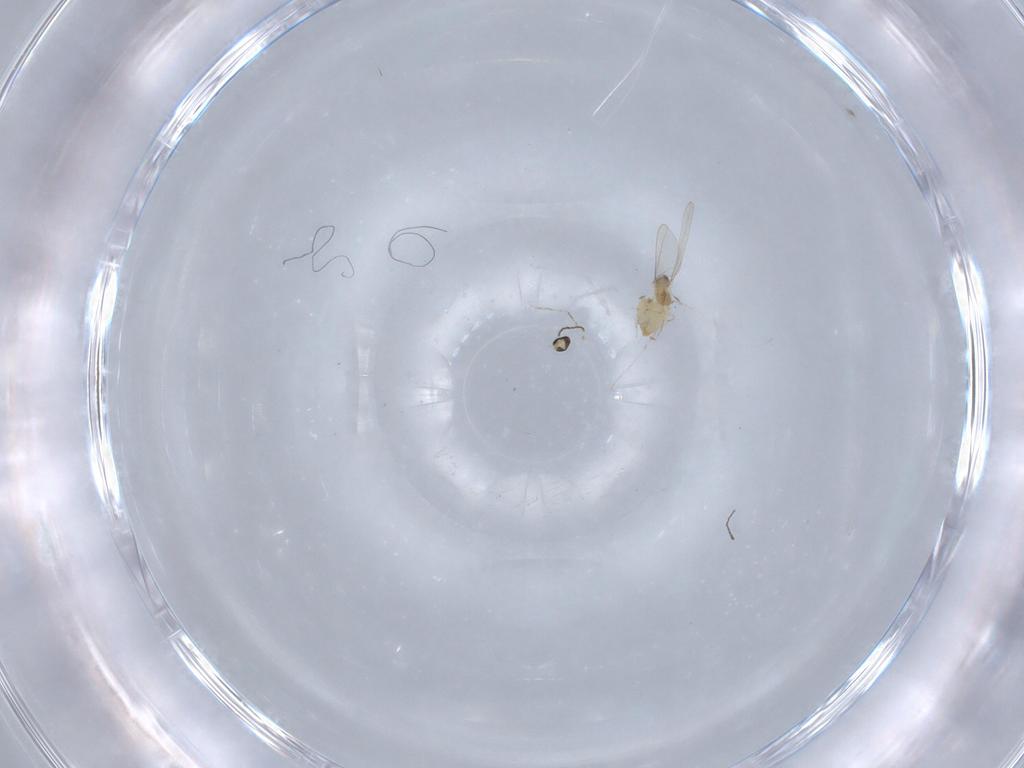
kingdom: Animalia
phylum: Arthropoda
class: Insecta
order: Diptera
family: Cecidomyiidae
